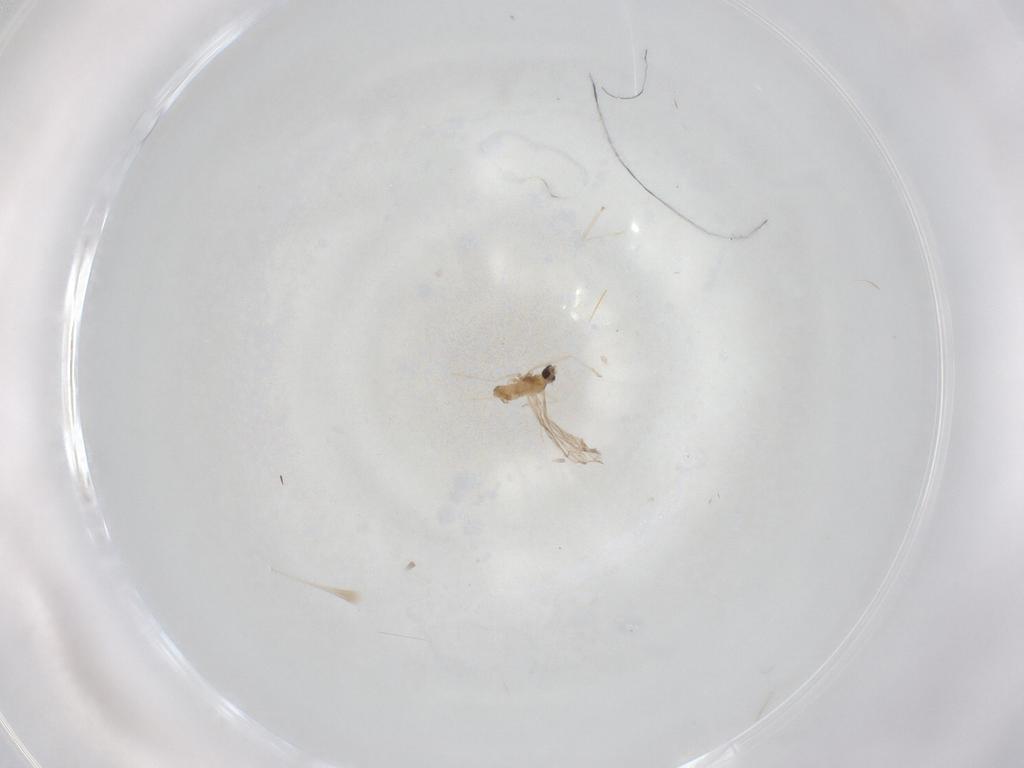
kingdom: Animalia
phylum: Arthropoda
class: Insecta
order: Diptera
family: Cecidomyiidae
